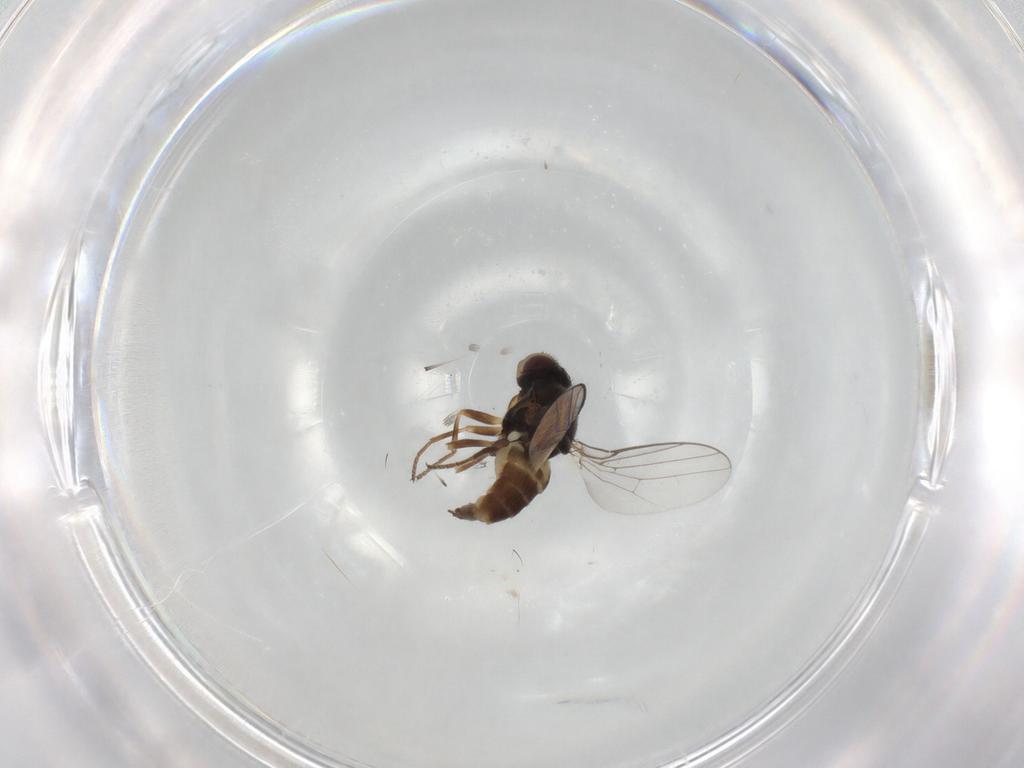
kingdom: Animalia
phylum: Arthropoda
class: Insecta
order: Diptera
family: Chloropidae
